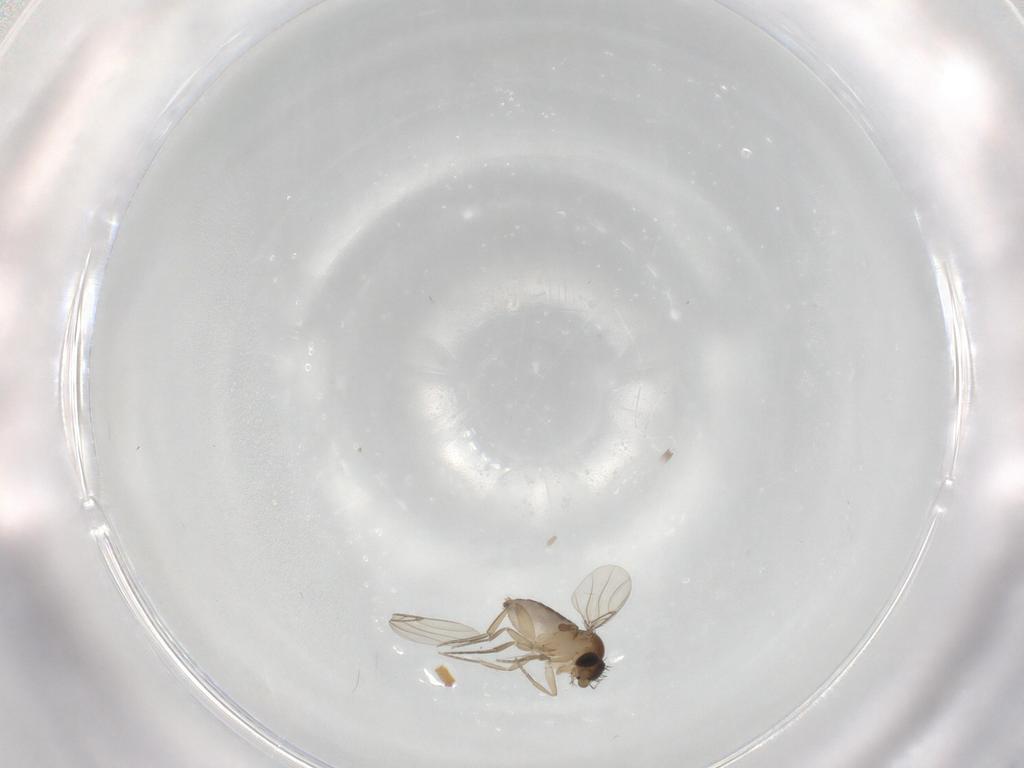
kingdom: Animalia
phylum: Arthropoda
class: Insecta
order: Diptera
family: Phoridae
